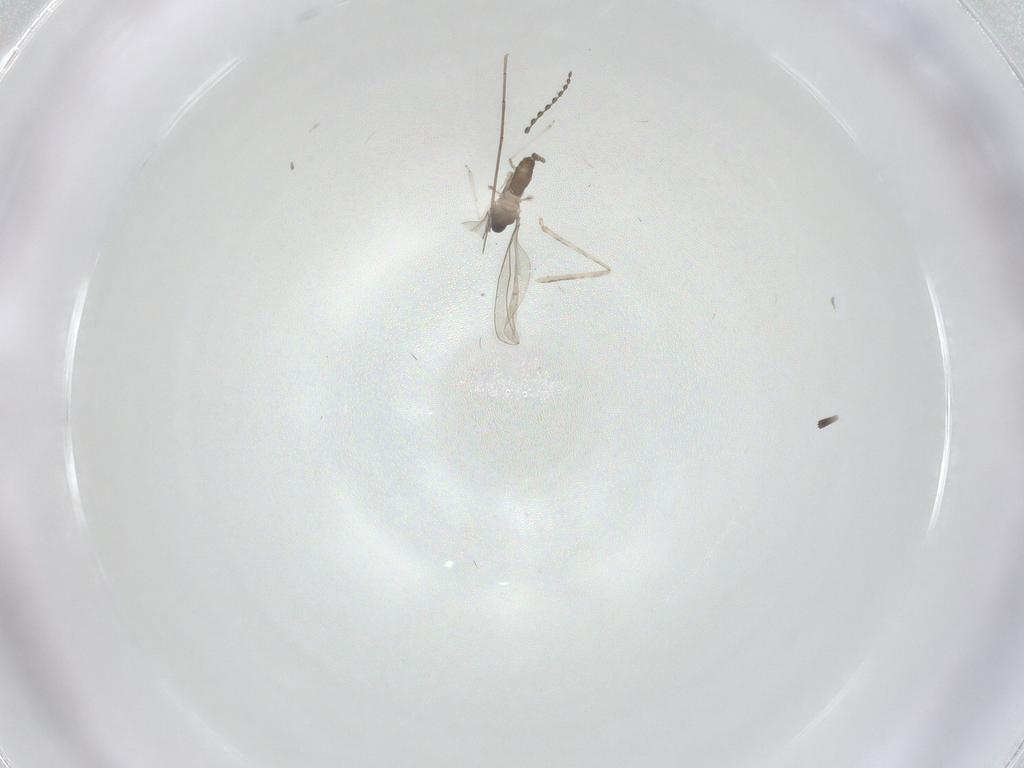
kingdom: Animalia
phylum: Arthropoda
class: Insecta
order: Diptera
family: Cecidomyiidae
